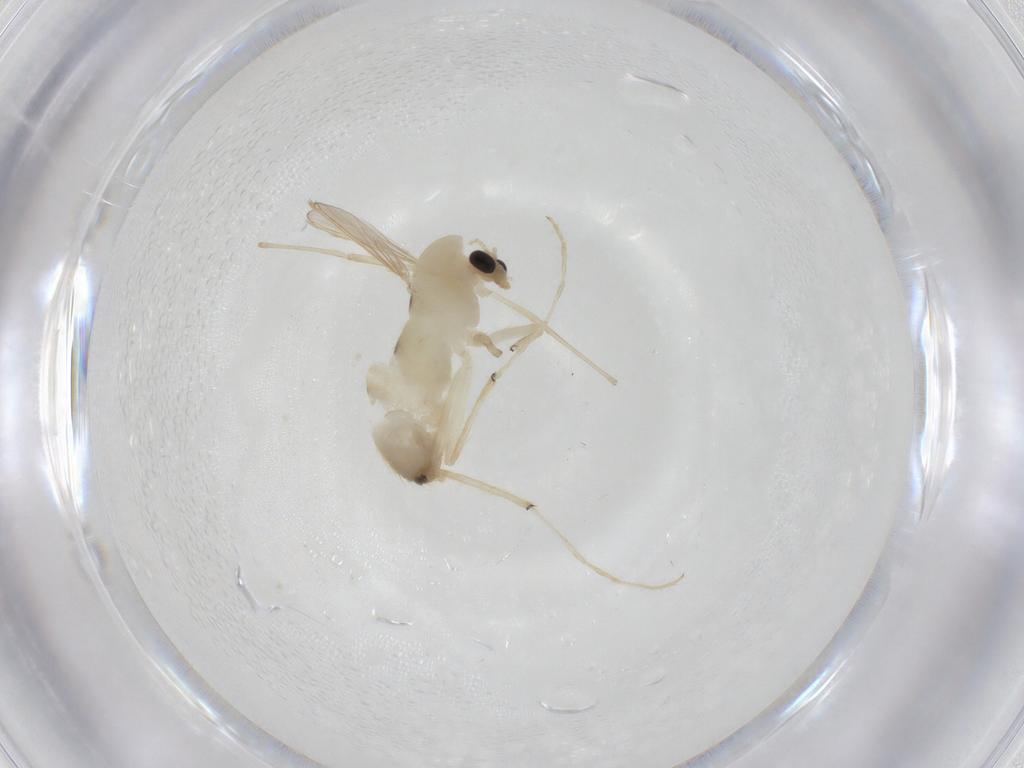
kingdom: Animalia
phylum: Arthropoda
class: Insecta
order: Diptera
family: Chironomidae
